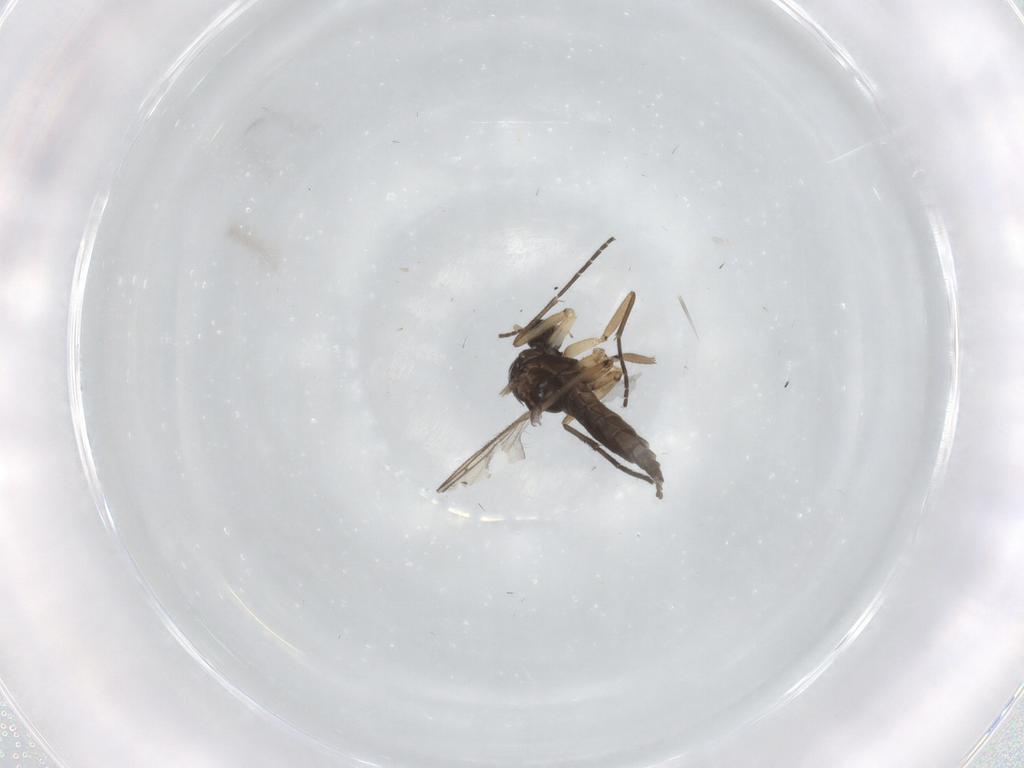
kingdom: Animalia
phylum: Arthropoda
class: Insecta
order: Diptera
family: Sciaridae
